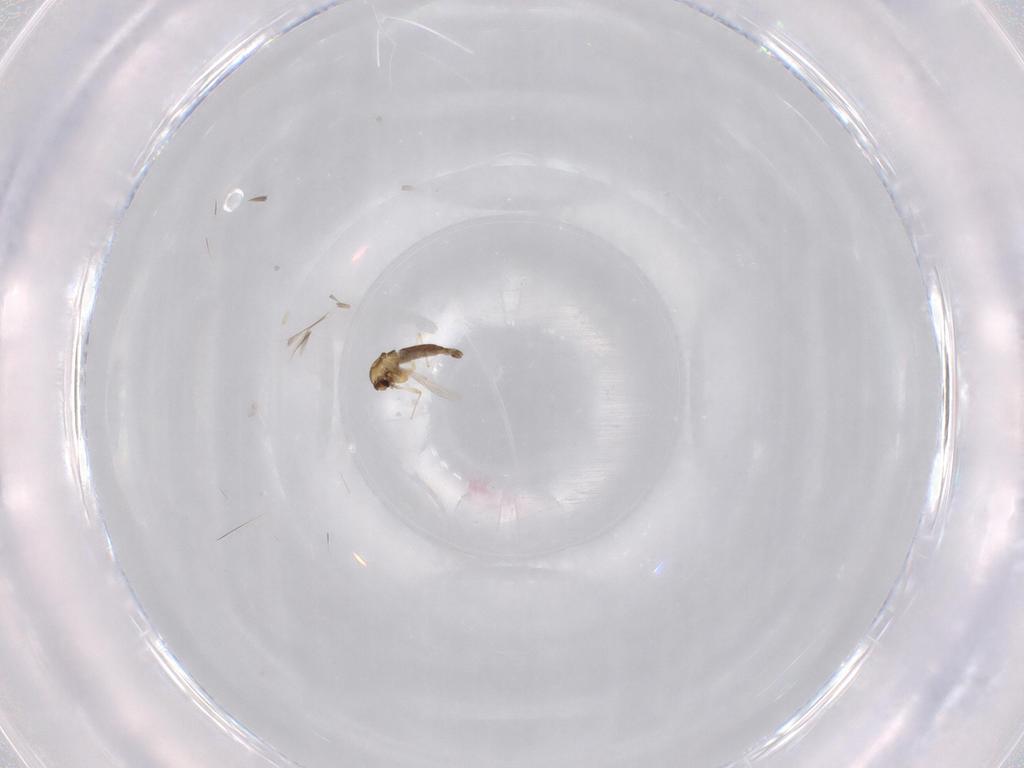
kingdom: Animalia
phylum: Arthropoda
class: Insecta
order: Diptera
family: Chironomidae
